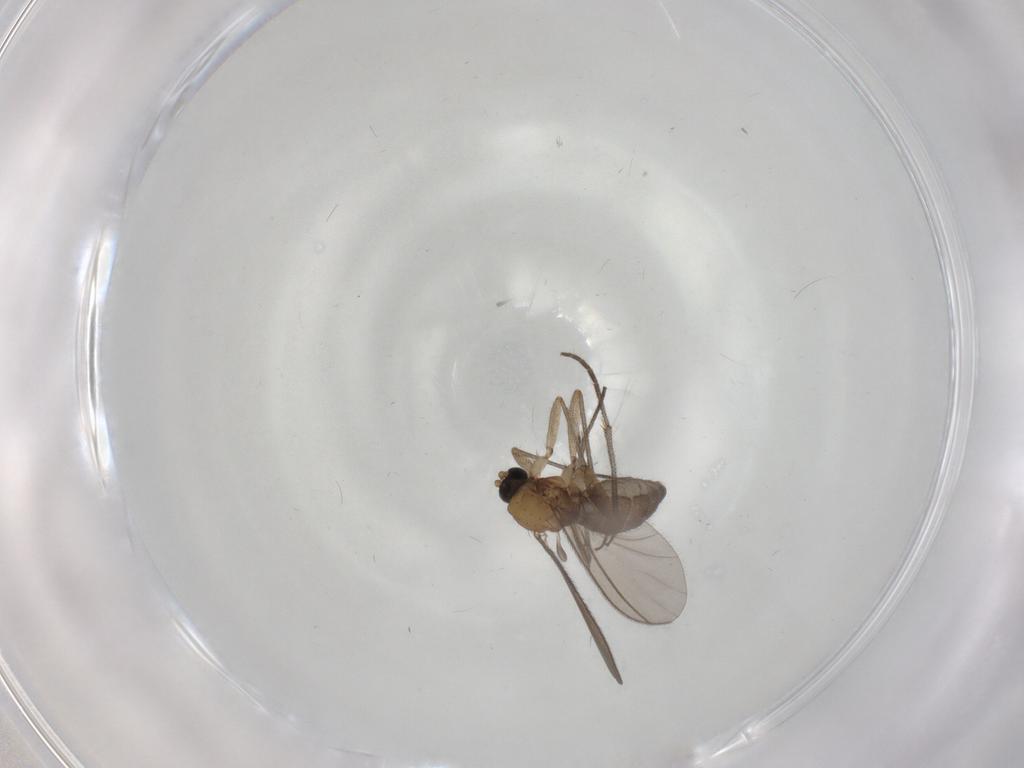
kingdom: Animalia
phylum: Arthropoda
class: Insecta
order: Diptera
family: Sciaridae
